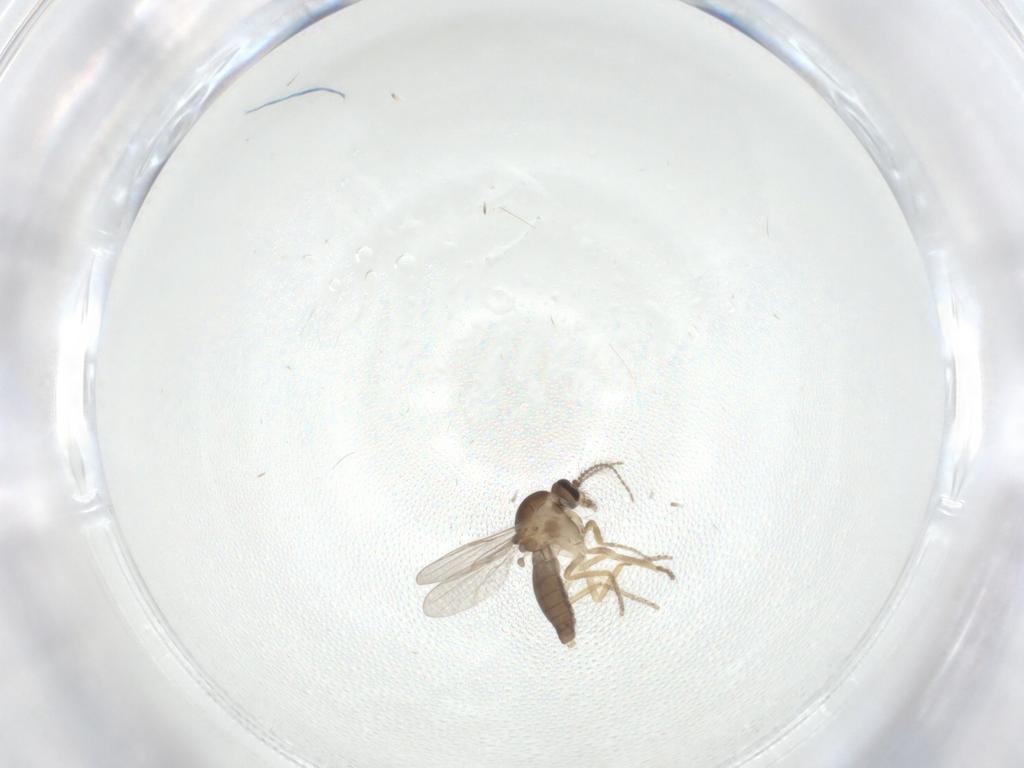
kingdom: Animalia
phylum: Arthropoda
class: Insecta
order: Diptera
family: Ceratopogonidae
